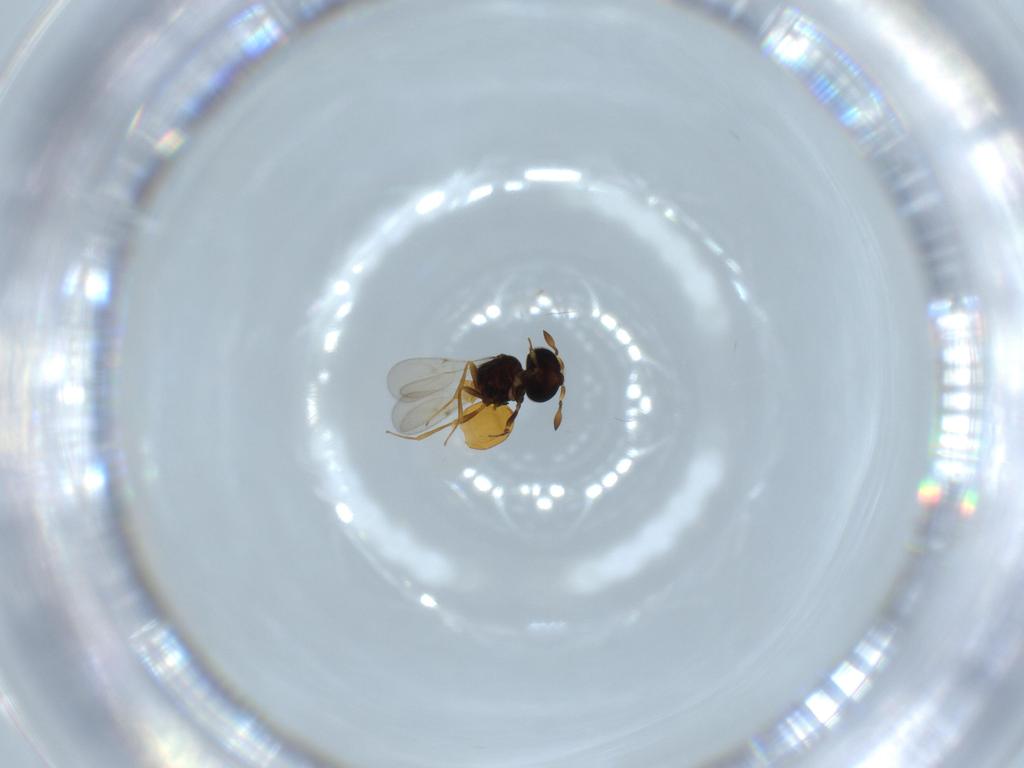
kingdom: Animalia
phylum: Arthropoda
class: Insecta
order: Hymenoptera
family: Scelionidae
